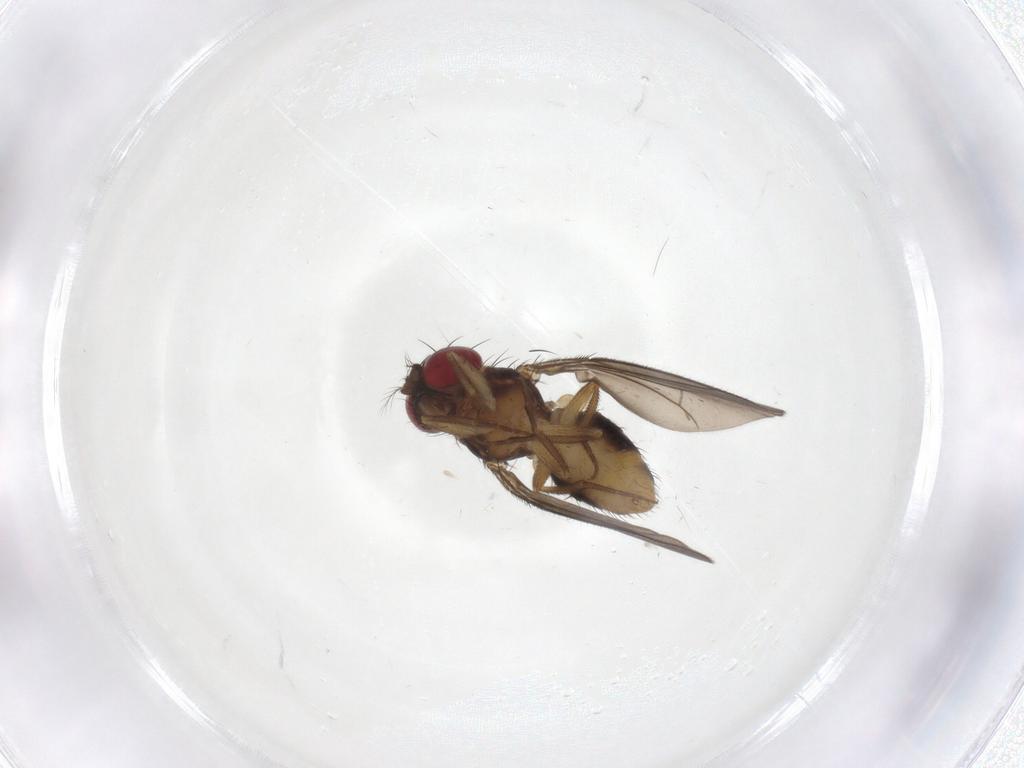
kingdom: Animalia
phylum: Arthropoda
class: Insecta
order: Diptera
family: Drosophilidae
